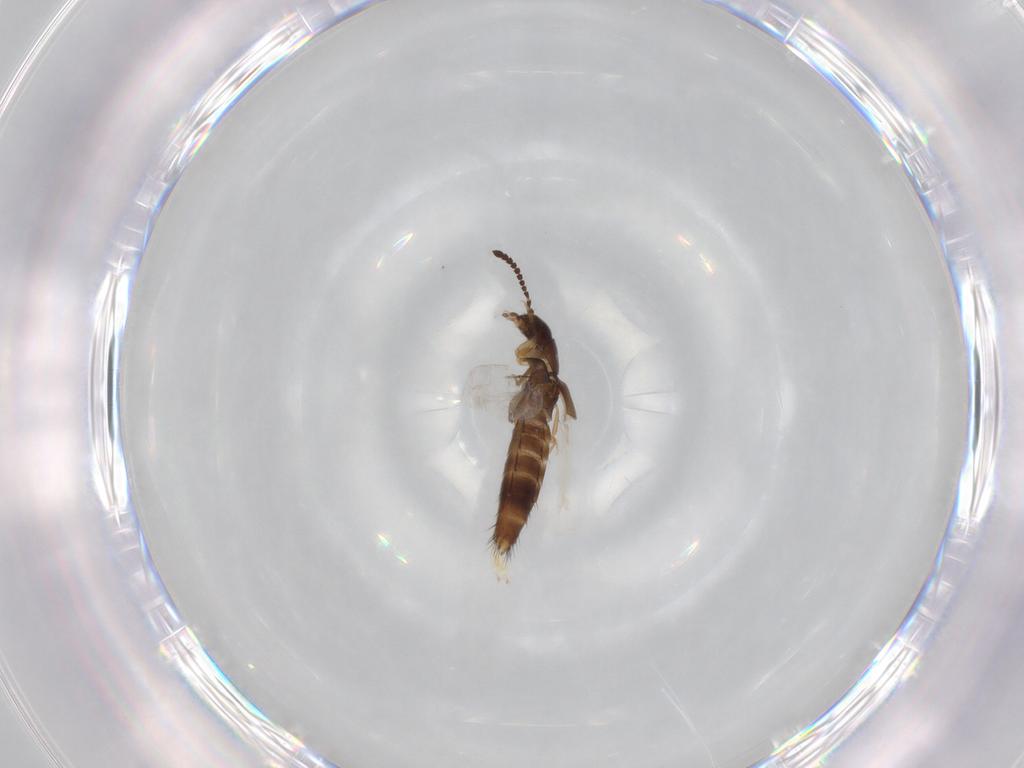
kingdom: Animalia
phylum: Arthropoda
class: Insecta
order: Coleoptera
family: Staphylinidae
